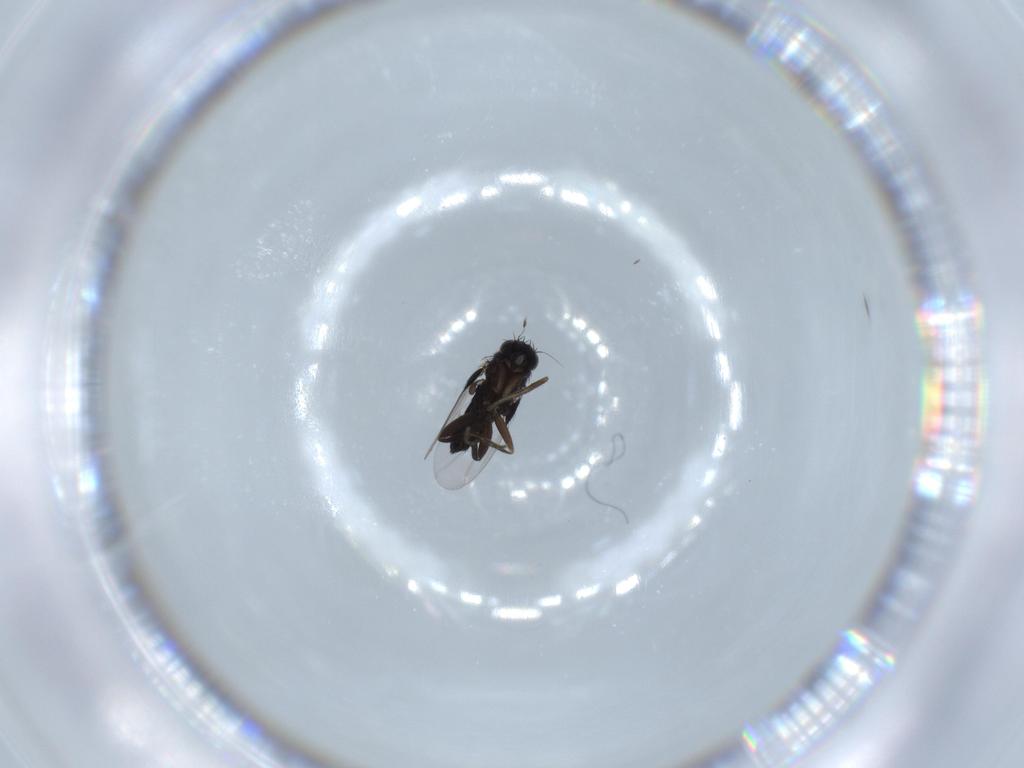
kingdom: Animalia
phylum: Arthropoda
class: Insecta
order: Diptera
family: Phoridae
